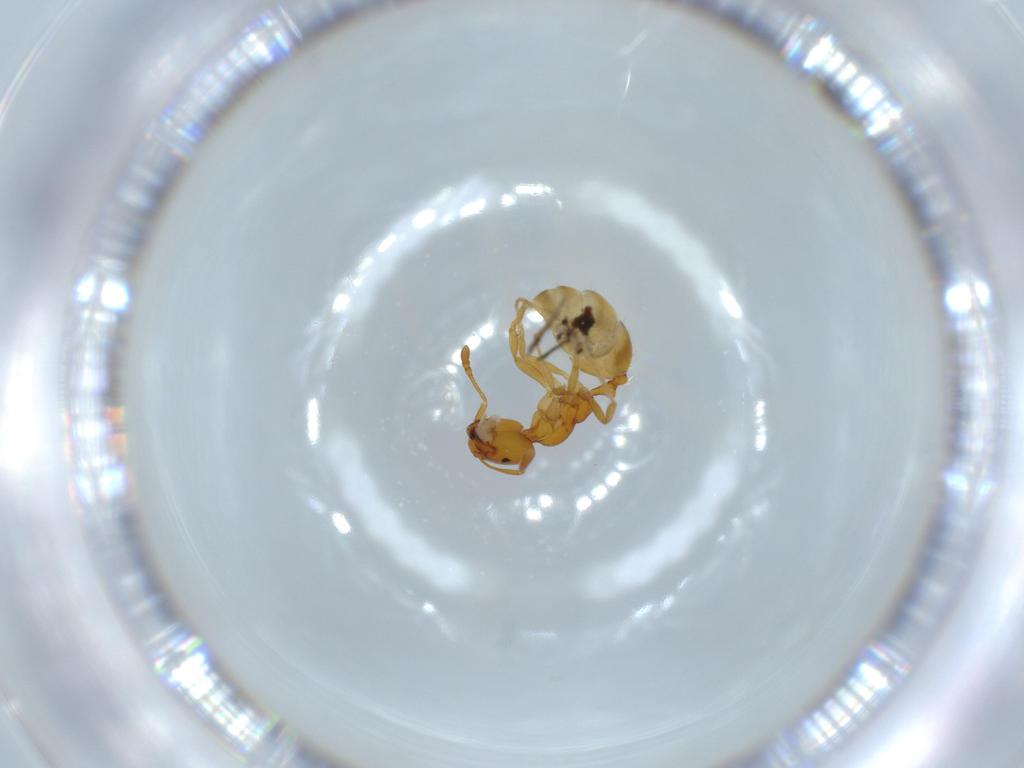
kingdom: Animalia
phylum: Arthropoda
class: Insecta
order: Hymenoptera
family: Formicidae
